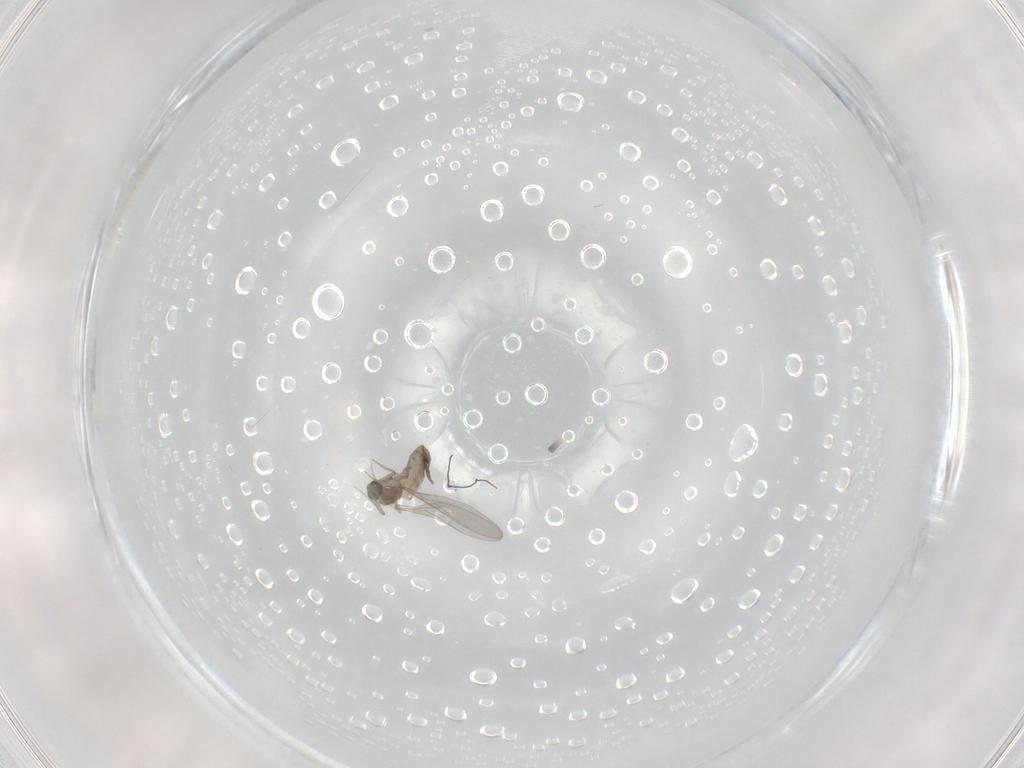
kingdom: Animalia
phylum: Arthropoda
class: Insecta
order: Diptera
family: Cecidomyiidae
